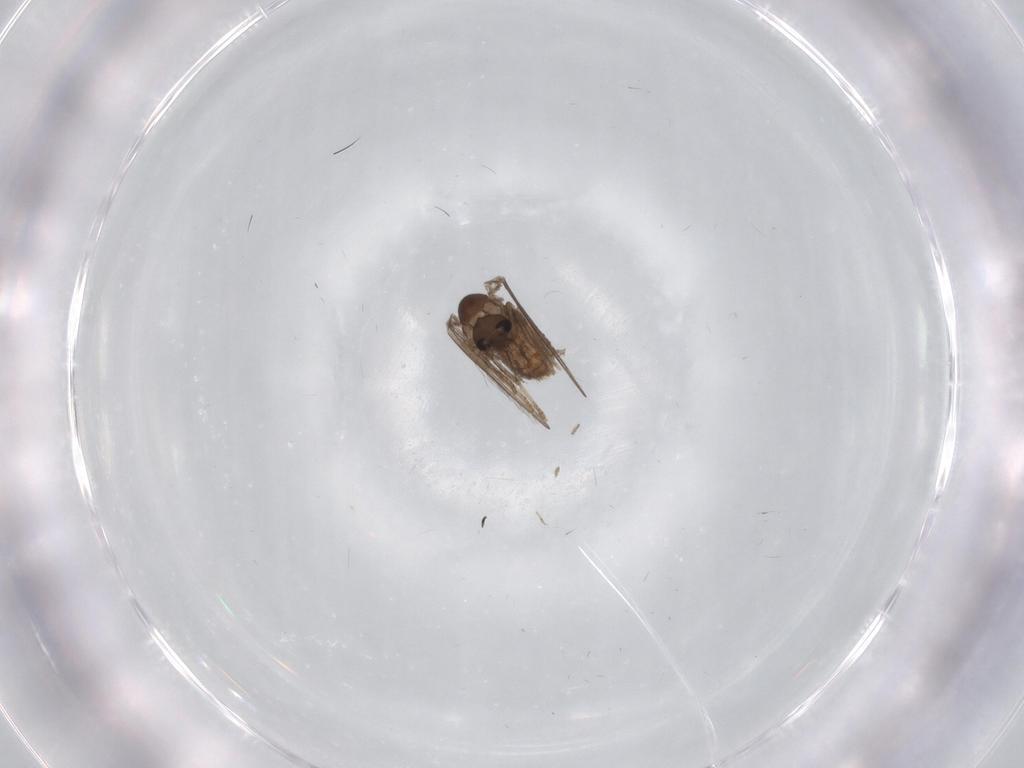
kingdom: Animalia
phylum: Arthropoda
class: Insecta
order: Diptera
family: Psychodidae
